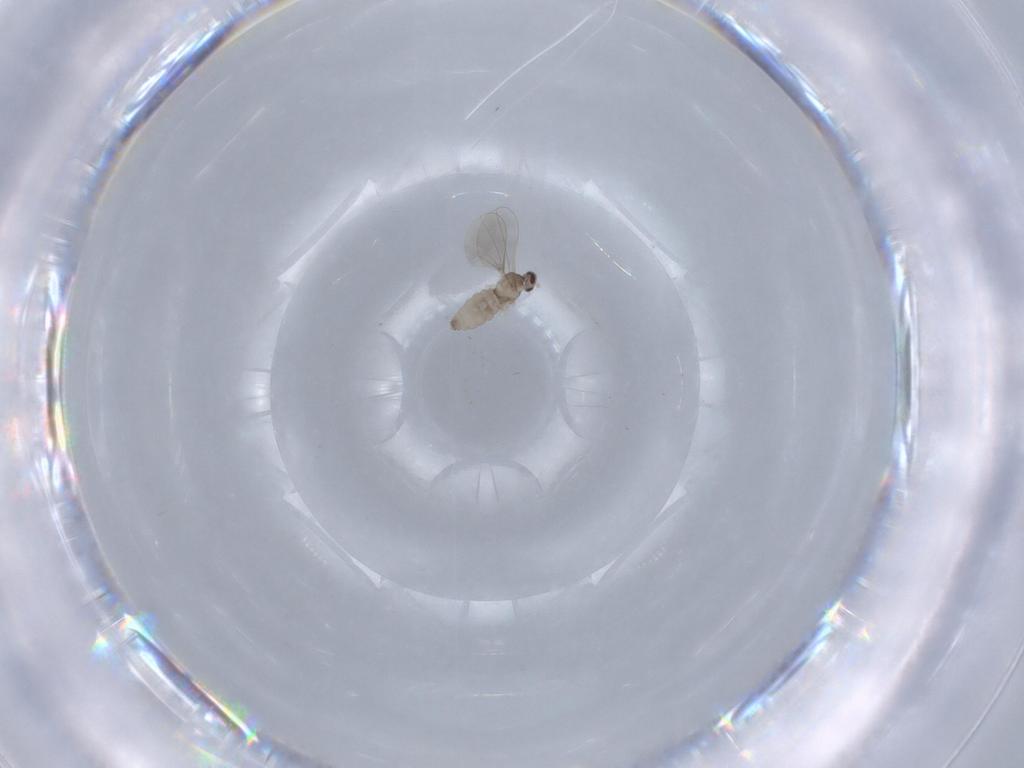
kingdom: Animalia
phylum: Arthropoda
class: Insecta
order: Diptera
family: Cecidomyiidae
